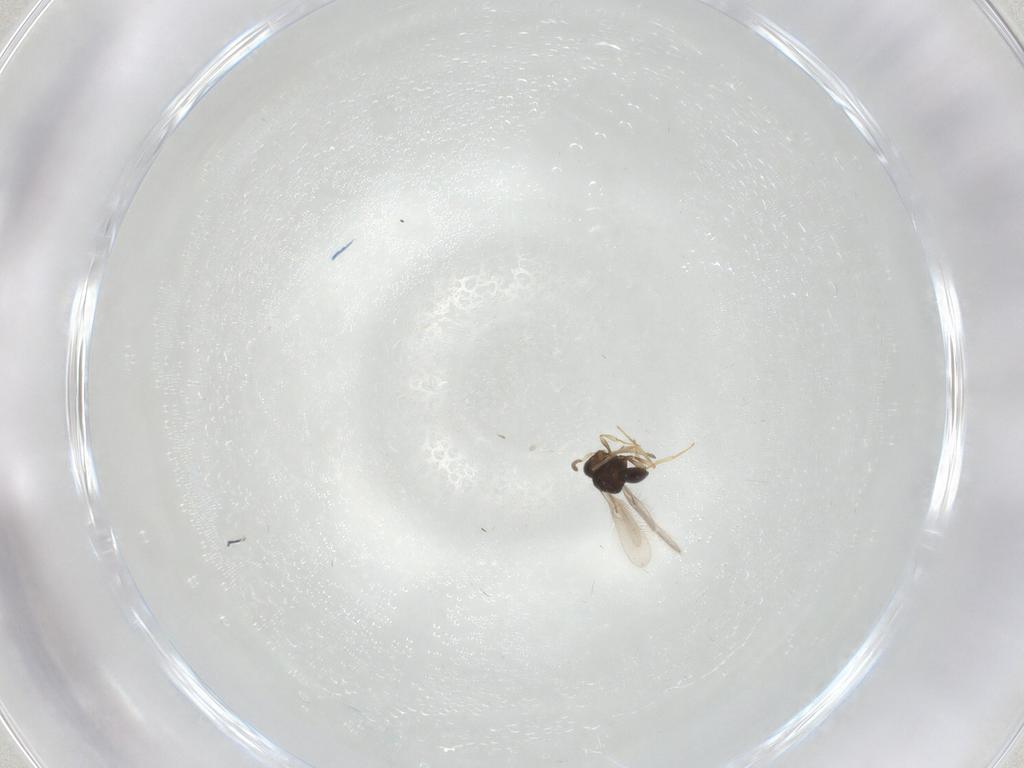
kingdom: Animalia
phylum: Arthropoda
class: Insecta
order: Hymenoptera
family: Scelionidae
